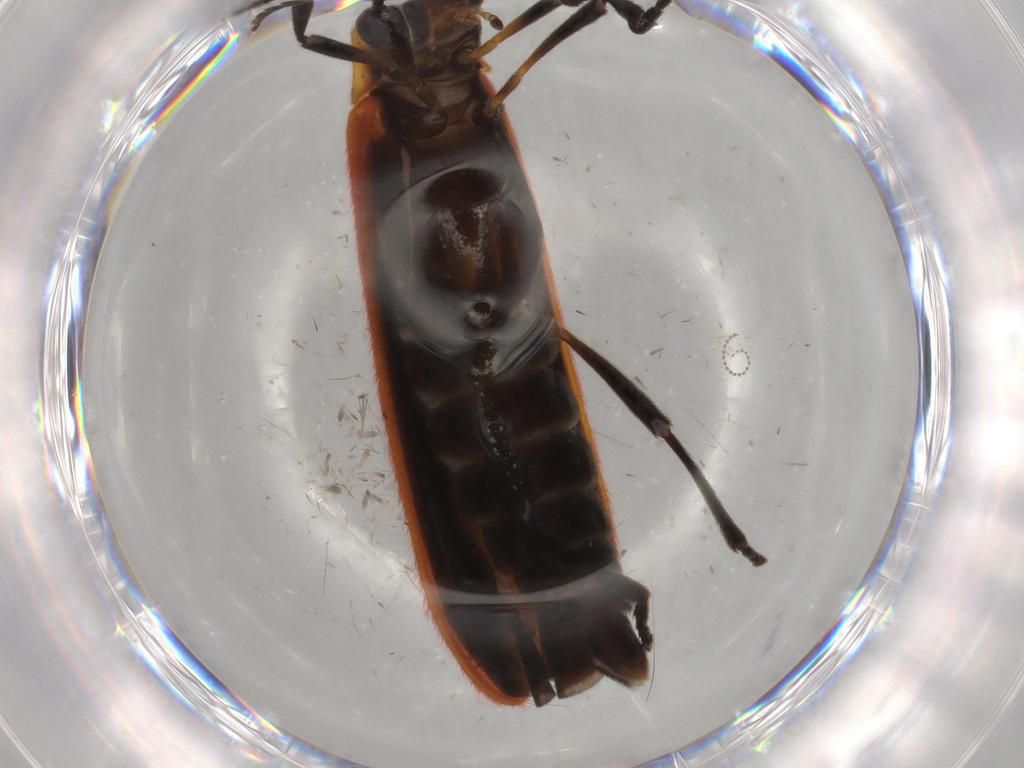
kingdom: Animalia
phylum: Arthropoda
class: Insecta
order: Coleoptera
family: Lycidae
